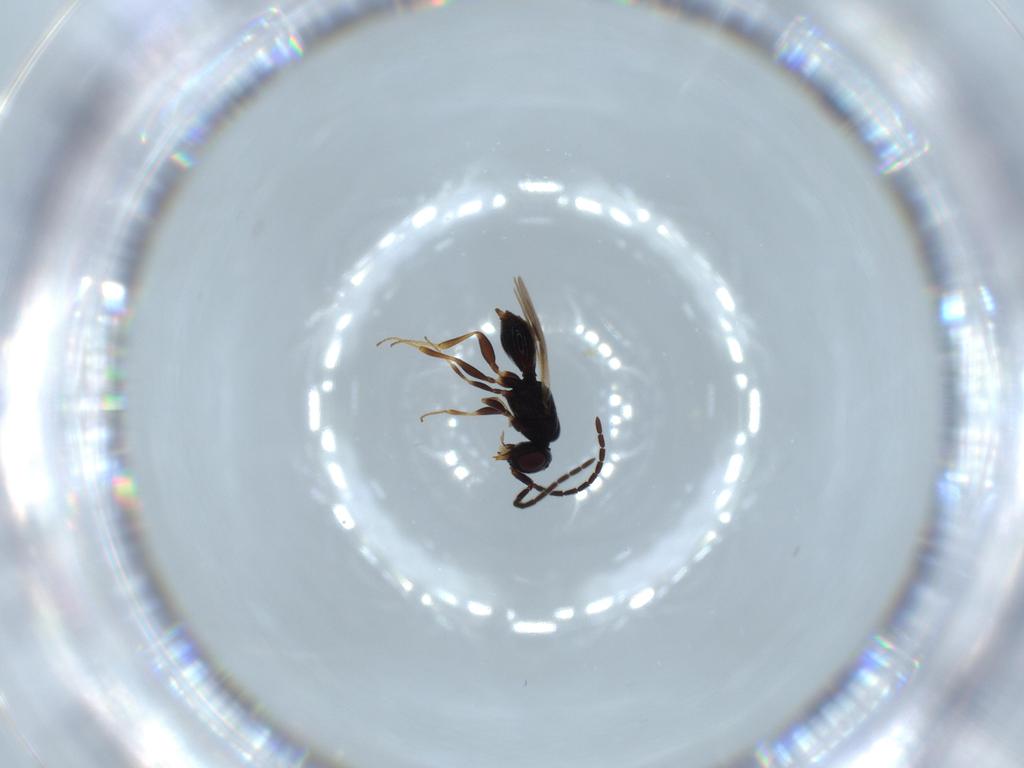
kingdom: Animalia
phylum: Arthropoda
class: Insecta
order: Hymenoptera
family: Megaspilidae
